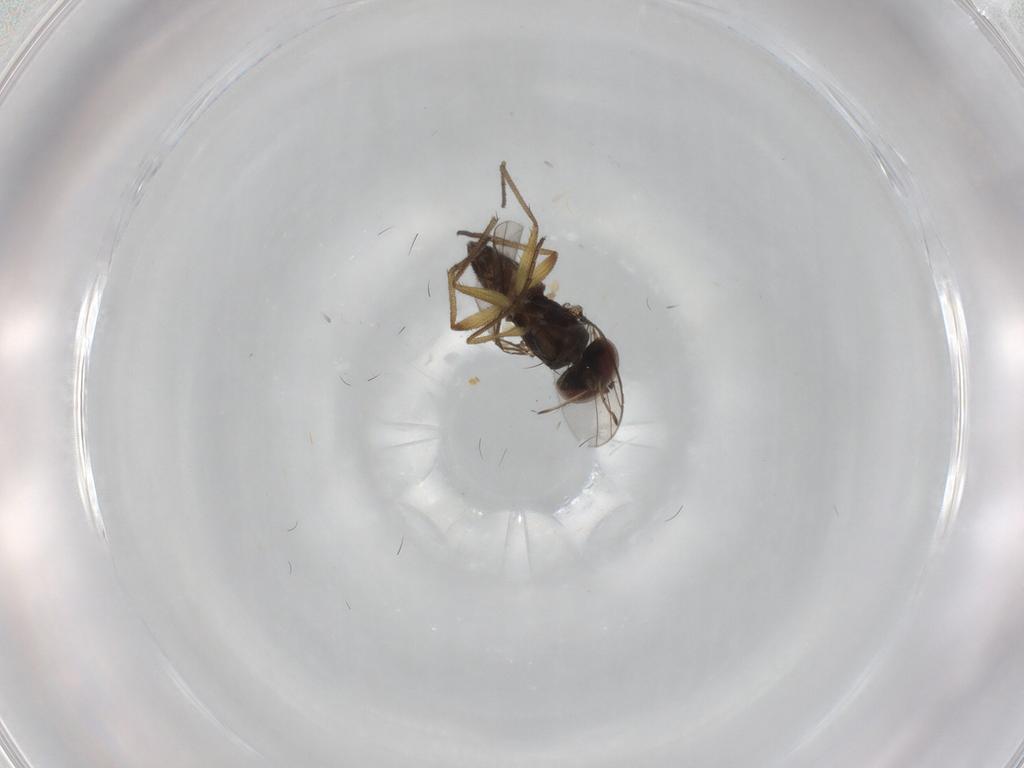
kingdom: Animalia
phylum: Arthropoda
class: Insecta
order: Diptera
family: Dolichopodidae
